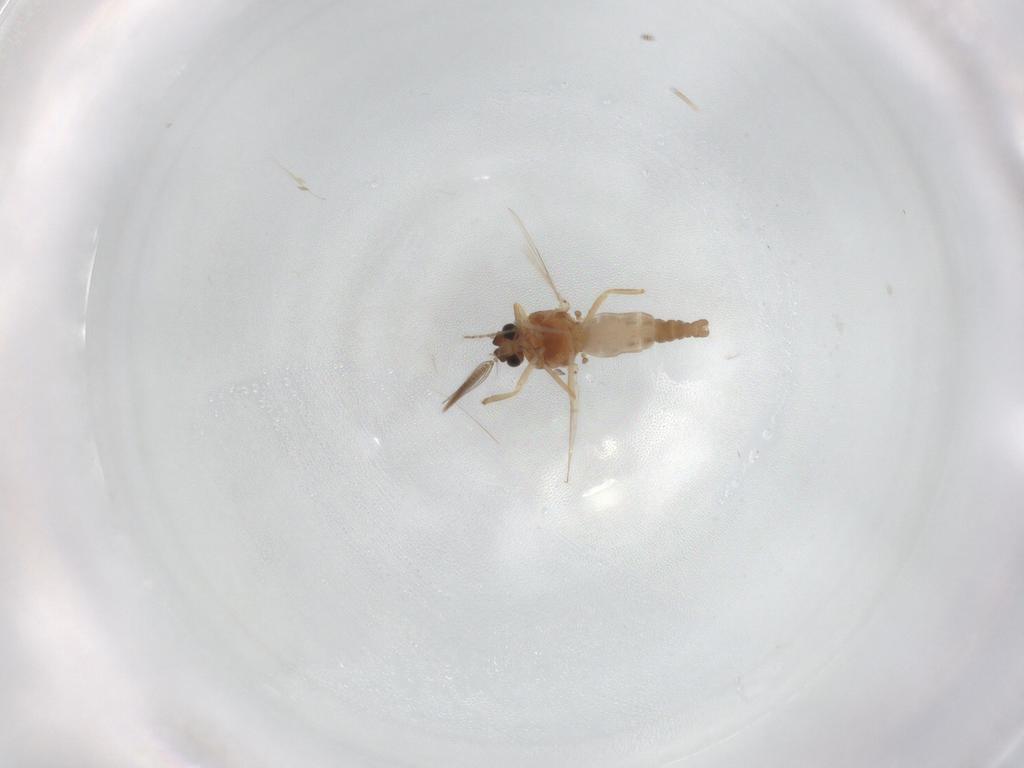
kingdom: Animalia
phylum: Arthropoda
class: Insecta
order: Diptera
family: Ceratopogonidae
